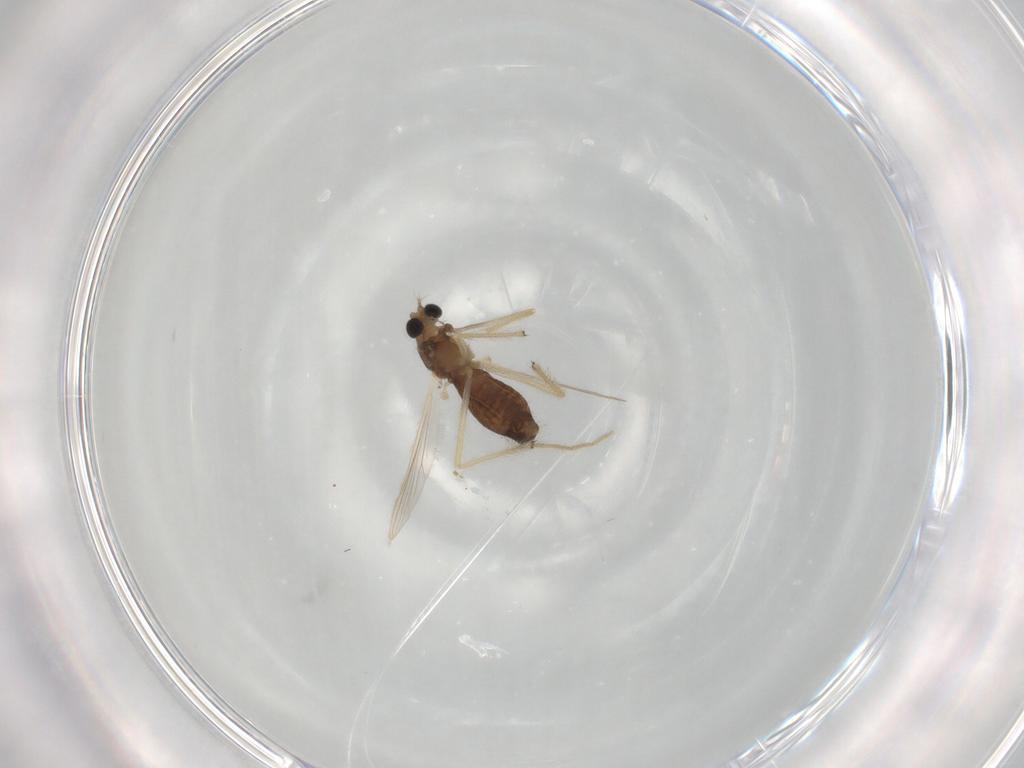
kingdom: Animalia
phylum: Arthropoda
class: Insecta
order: Diptera
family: Chironomidae
